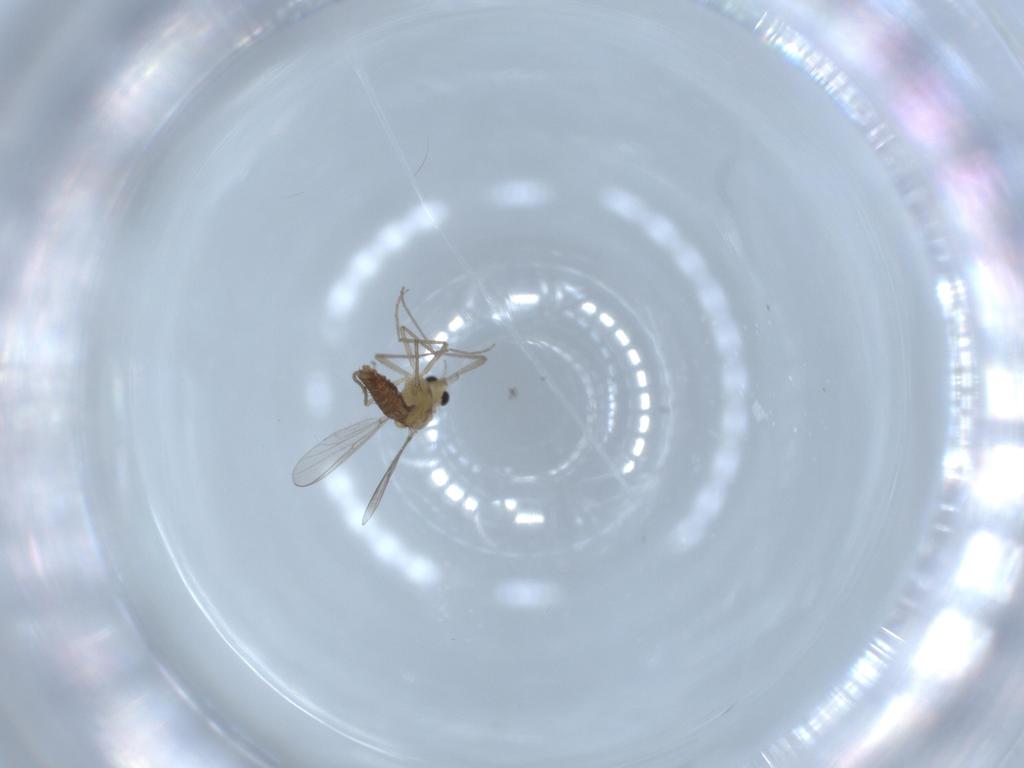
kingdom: Animalia
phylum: Arthropoda
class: Insecta
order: Diptera
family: Chironomidae
